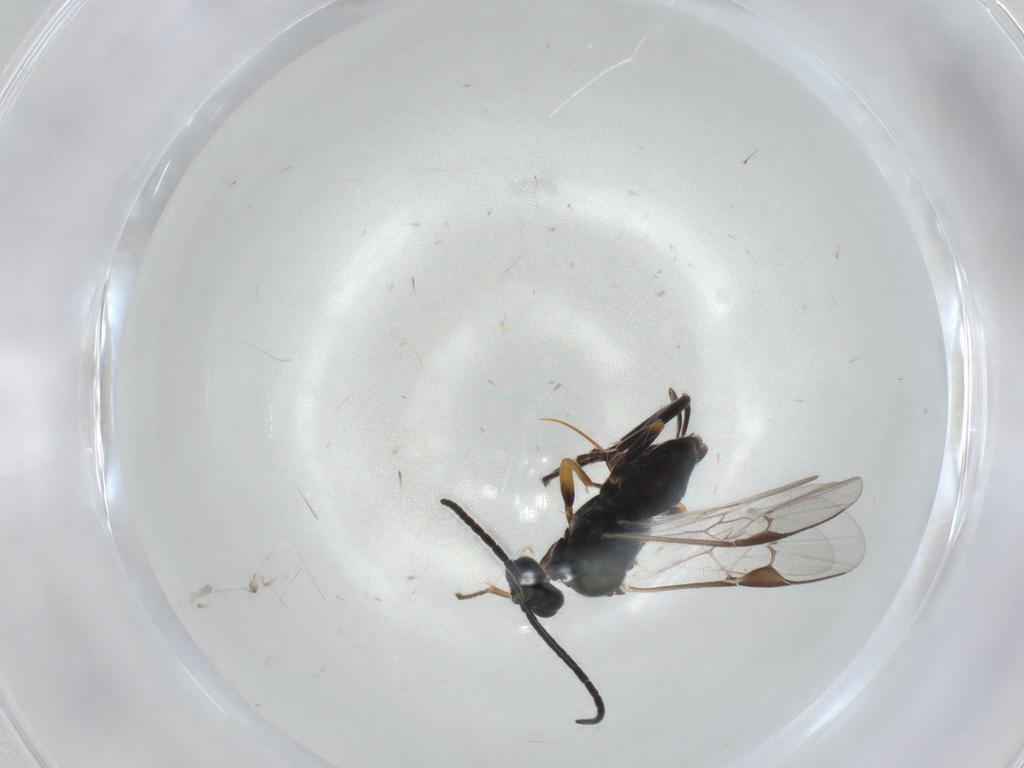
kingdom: Animalia
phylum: Arthropoda
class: Insecta
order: Hymenoptera
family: Braconidae
